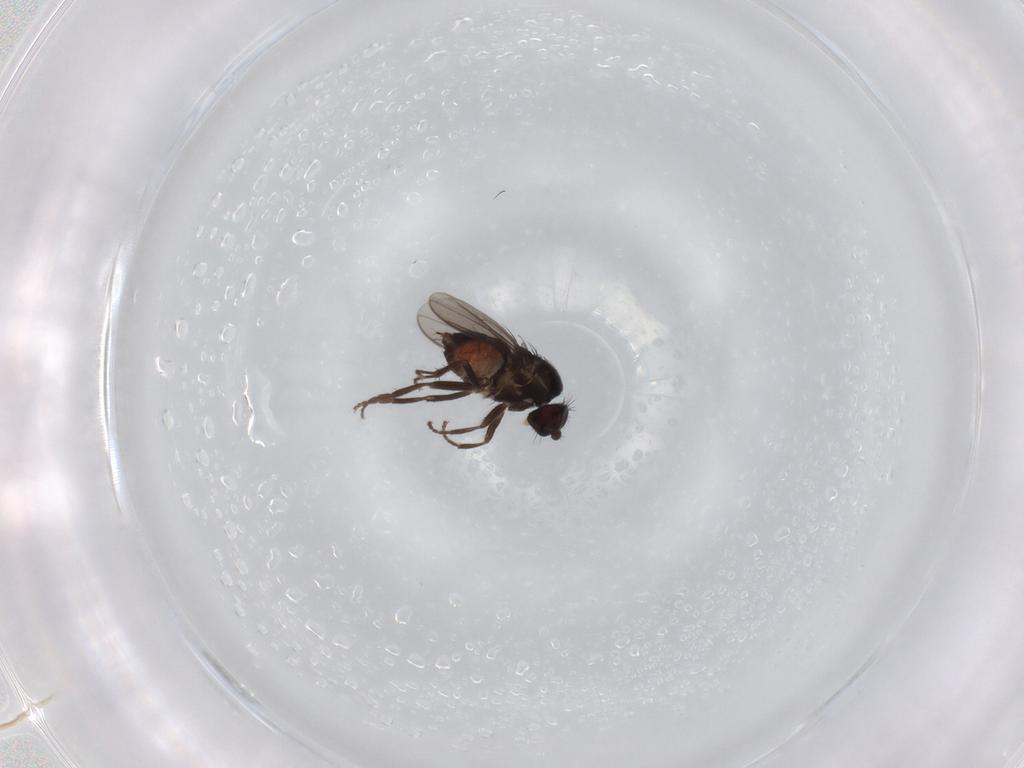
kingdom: Animalia
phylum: Arthropoda
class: Insecta
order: Diptera
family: Sphaeroceridae
